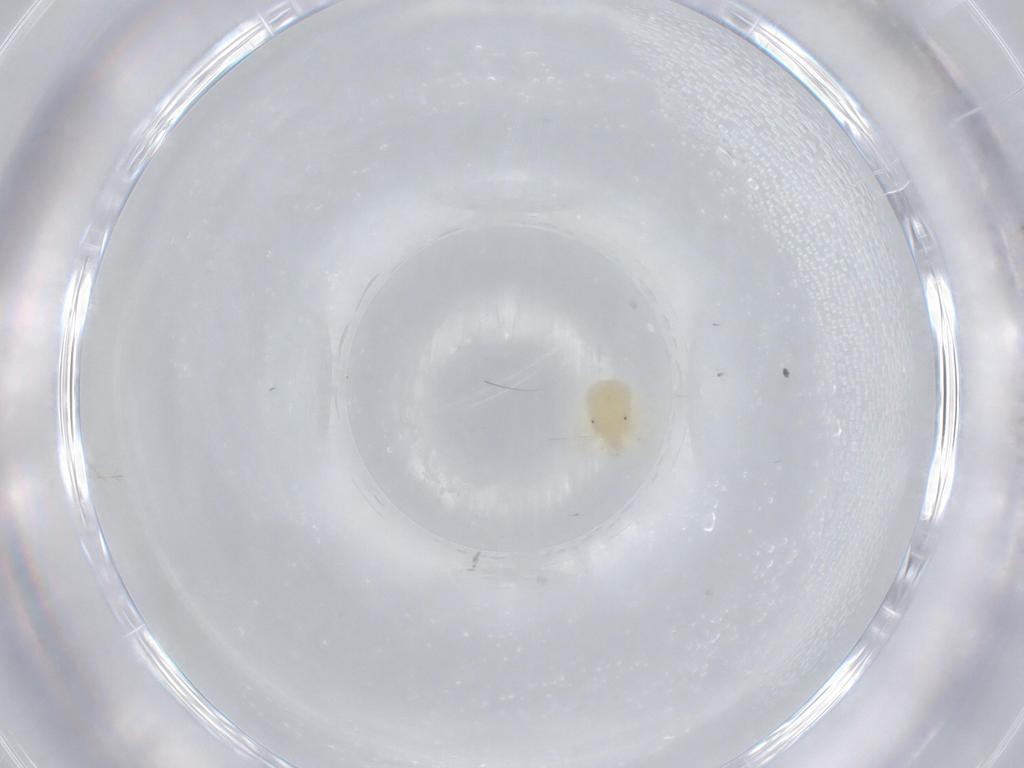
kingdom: Animalia
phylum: Arthropoda
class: Arachnida
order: Trombidiformes
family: Anystidae
